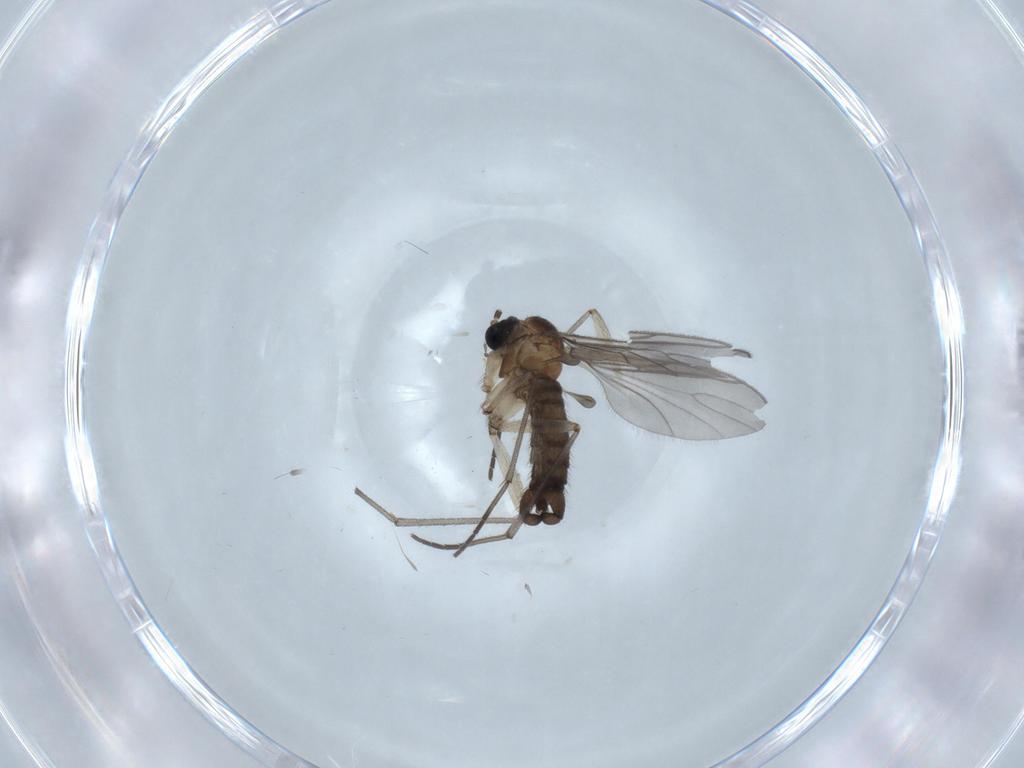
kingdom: Animalia
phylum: Arthropoda
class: Insecta
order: Diptera
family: Sciaridae
